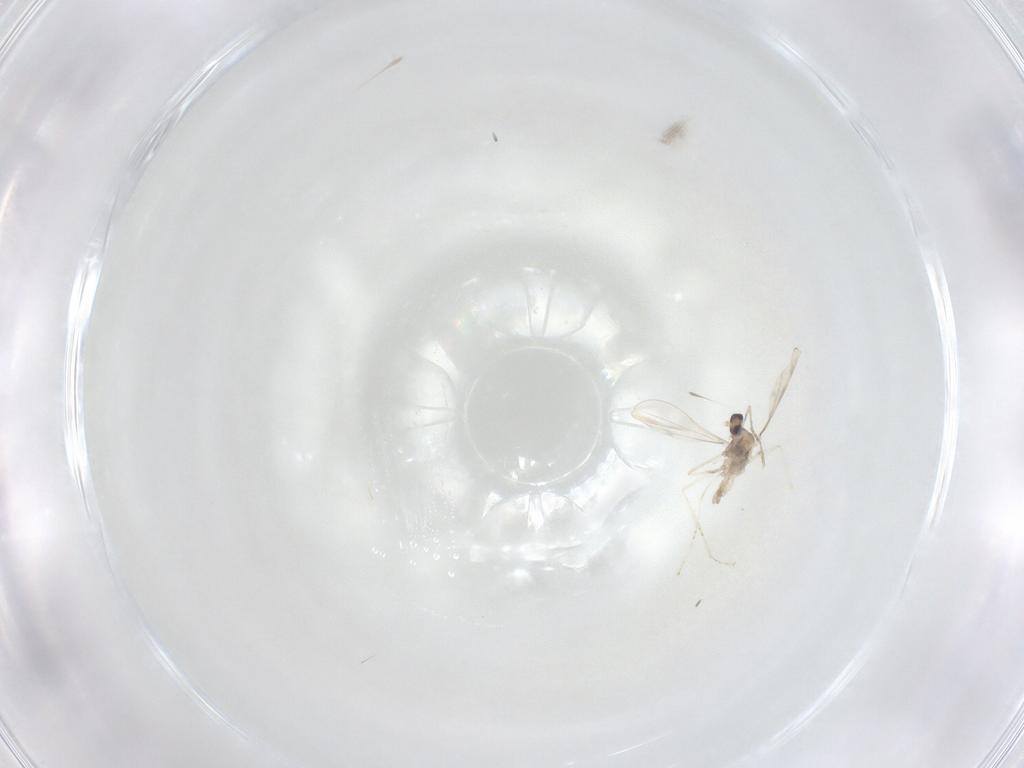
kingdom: Animalia
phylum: Arthropoda
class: Insecta
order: Diptera
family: Cecidomyiidae
